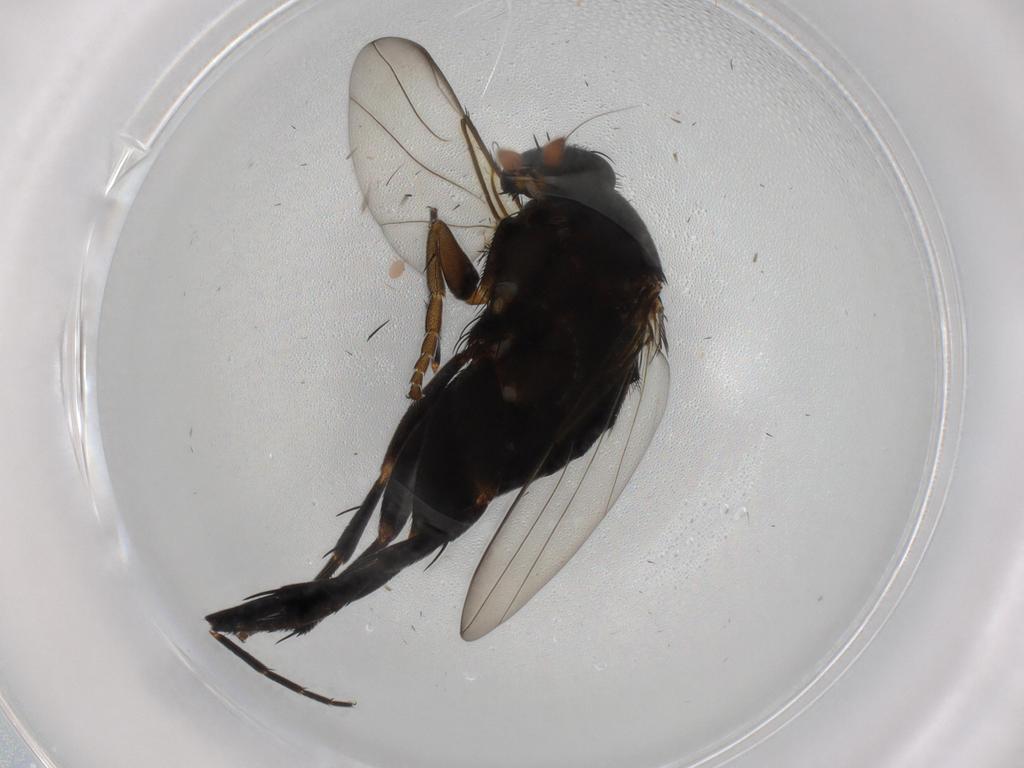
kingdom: Animalia
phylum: Arthropoda
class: Insecta
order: Diptera
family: Phoridae
